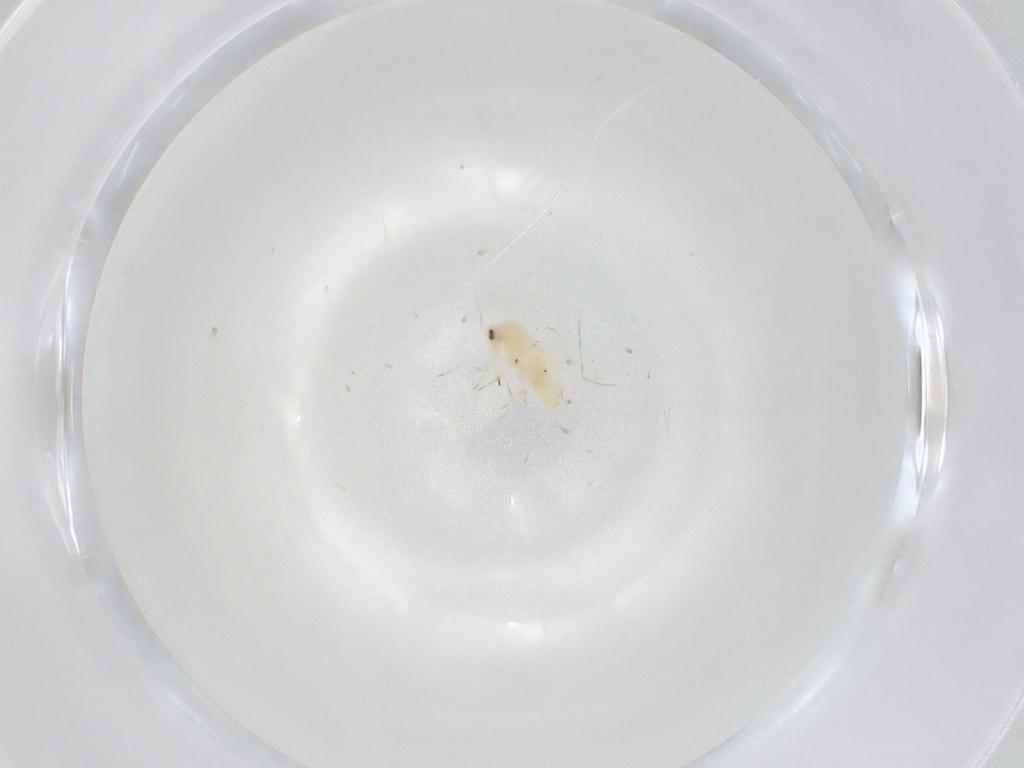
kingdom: Animalia
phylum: Arthropoda
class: Insecta
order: Hemiptera
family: Aleyrodidae
